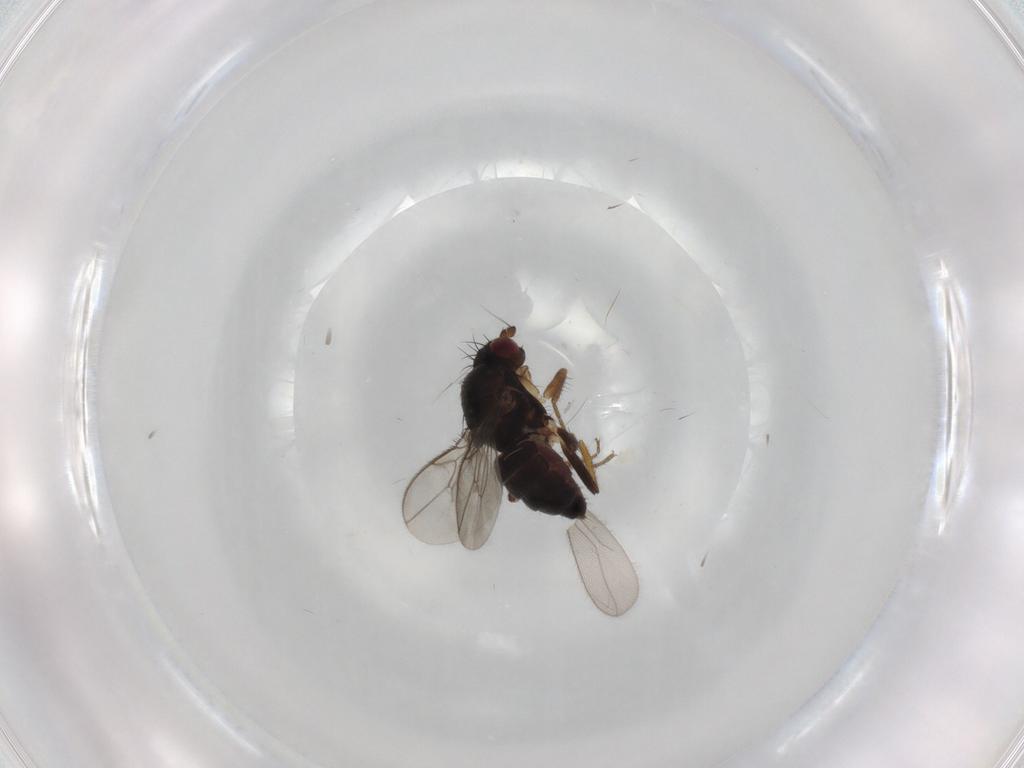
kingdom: Animalia
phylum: Arthropoda
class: Insecta
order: Diptera
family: Sphaeroceridae
